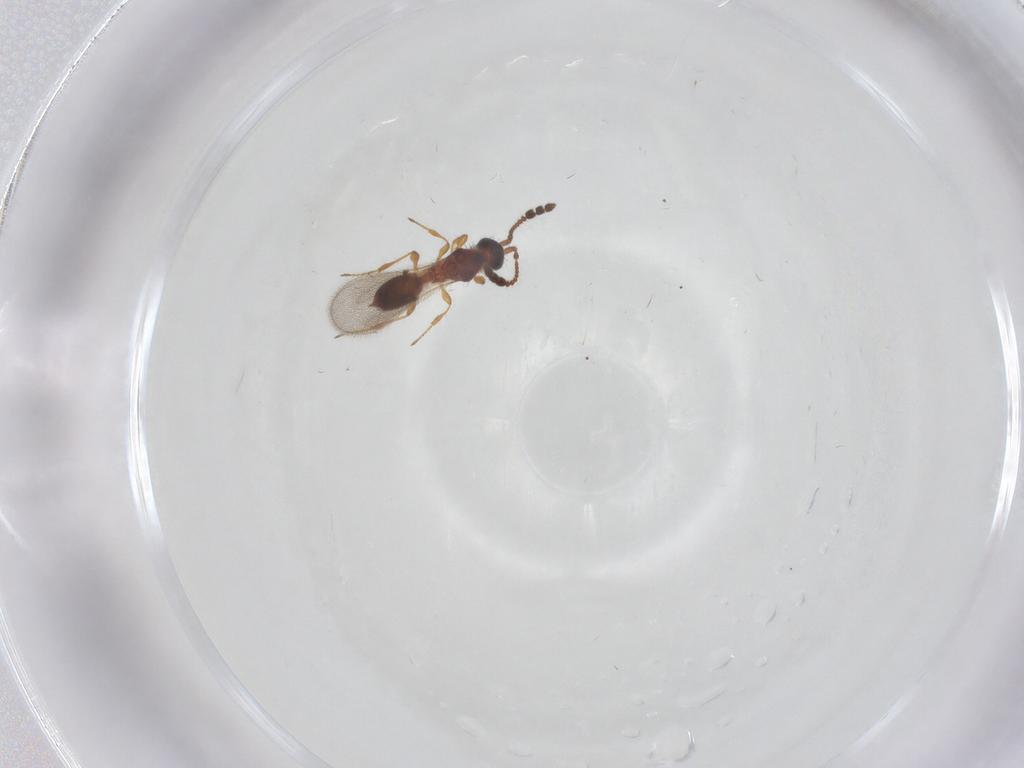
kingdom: Animalia
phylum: Arthropoda
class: Insecta
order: Hymenoptera
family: Diapriidae
